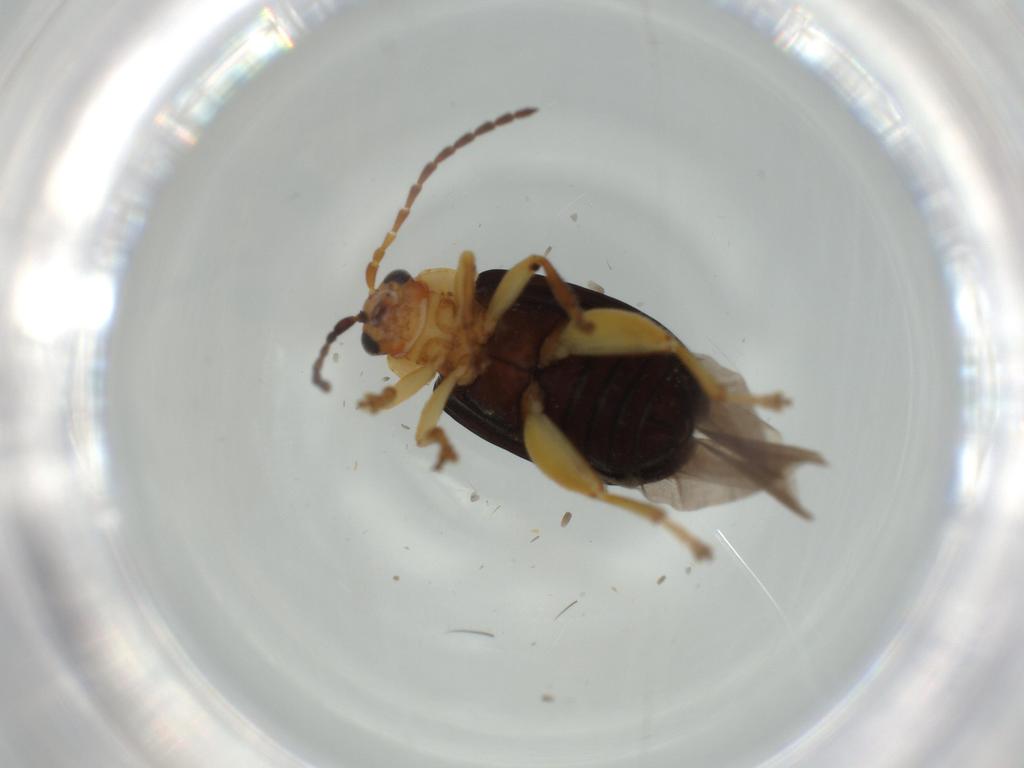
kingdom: Animalia
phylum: Arthropoda
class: Insecta
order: Coleoptera
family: Chrysomelidae
